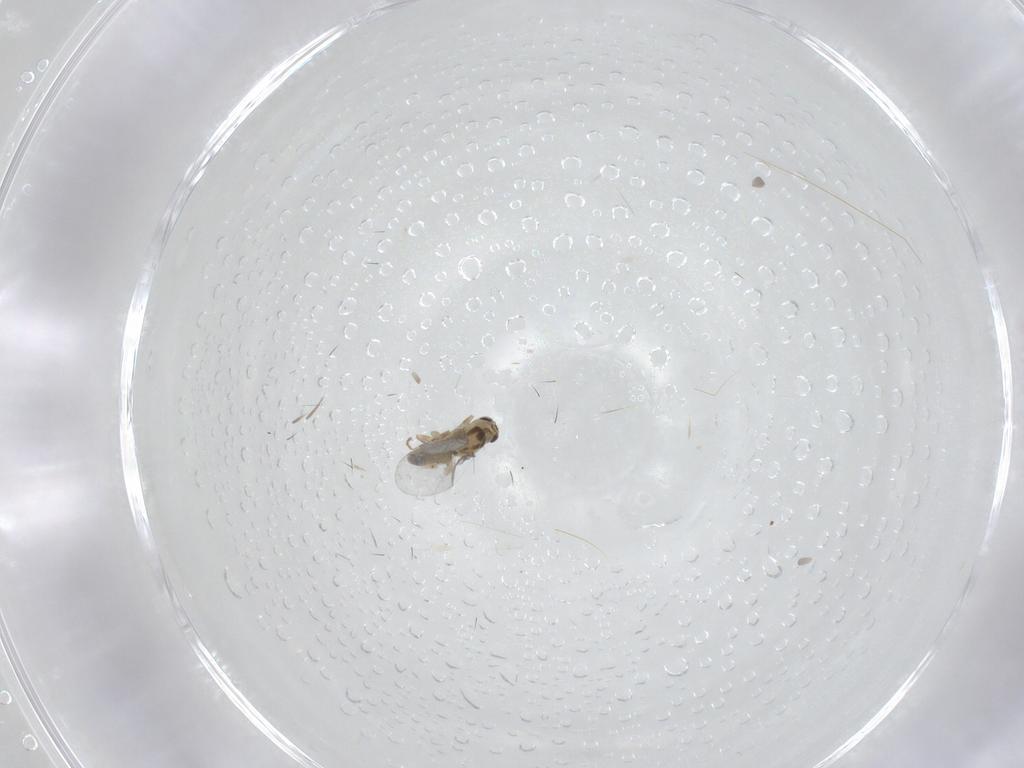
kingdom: Animalia
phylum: Arthropoda
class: Insecta
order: Diptera
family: Agromyzidae
